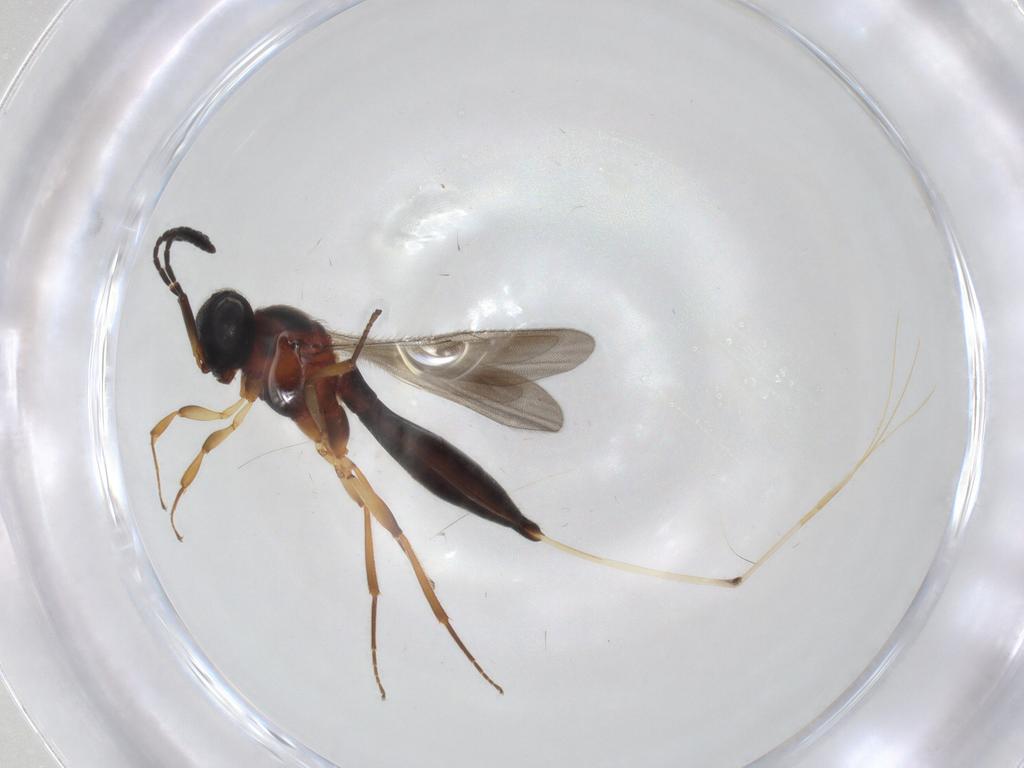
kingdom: Animalia
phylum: Arthropoda
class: Insecta
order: Hymenoptera
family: Scelionidae
